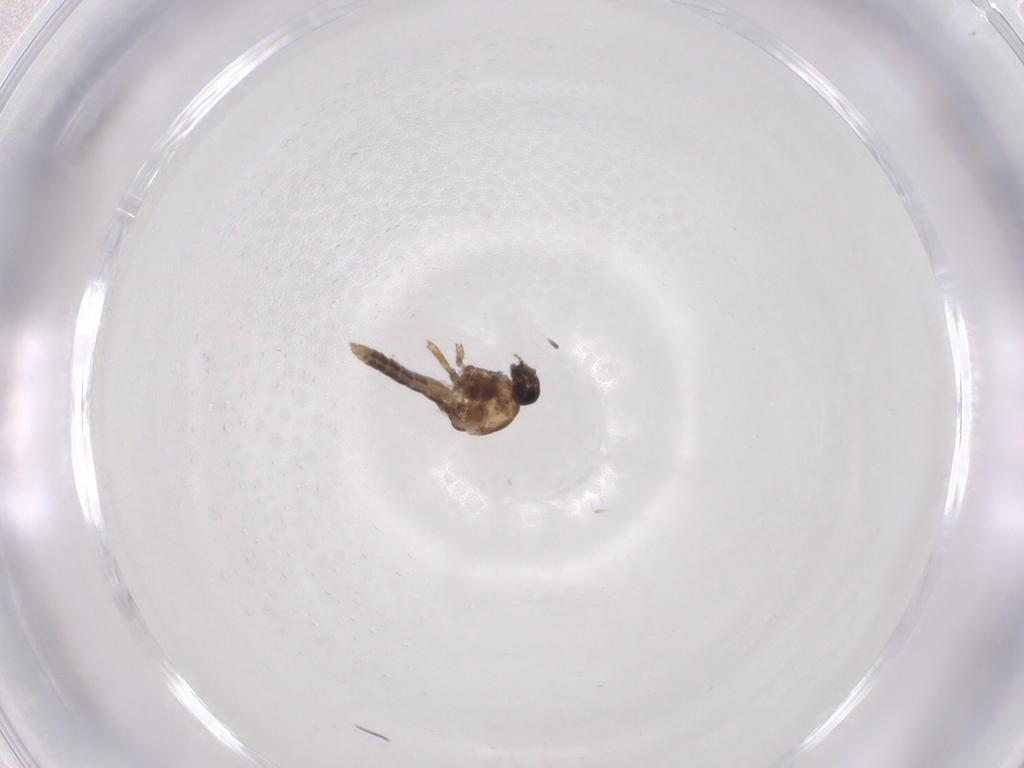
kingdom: Animalia
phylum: Arthropoda
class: Insecta
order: Diptera
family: Cecidomyiidae
